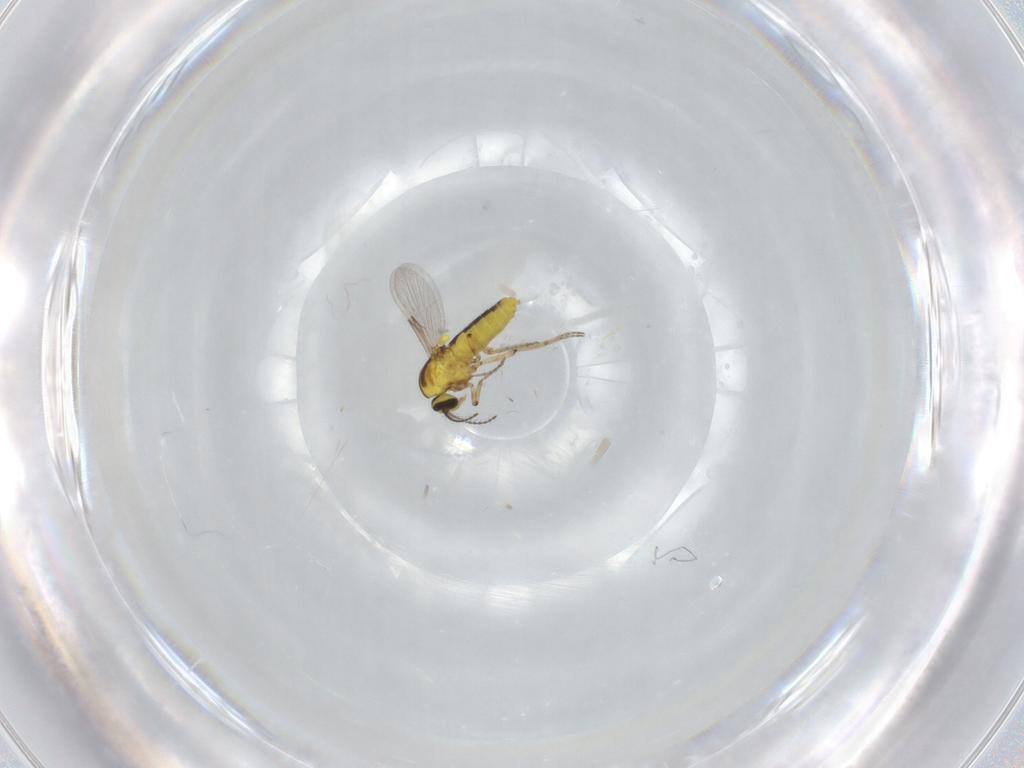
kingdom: Animalia
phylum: Arthropoda
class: Insecta
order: Diptera
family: Ceratopogonidae
